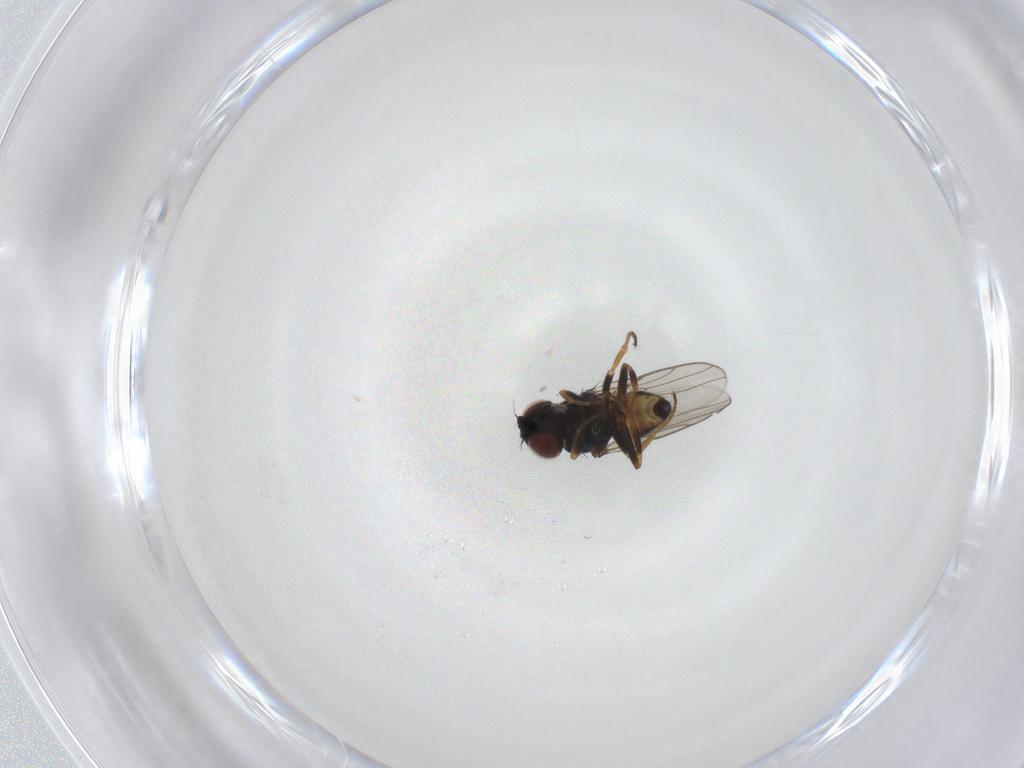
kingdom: Animalia
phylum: Arthropoda
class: Insecta
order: Diptera
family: Chloropidae
